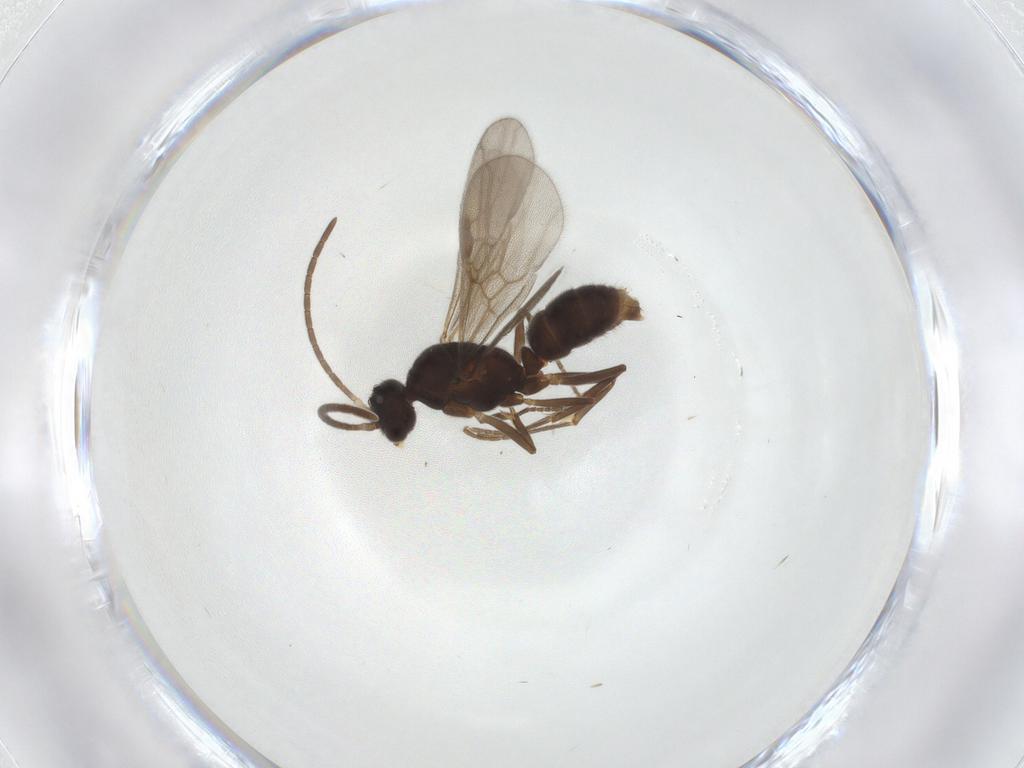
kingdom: Animalia
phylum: Arthropoda
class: Insecta
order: Hymenoptera
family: Formicidae
